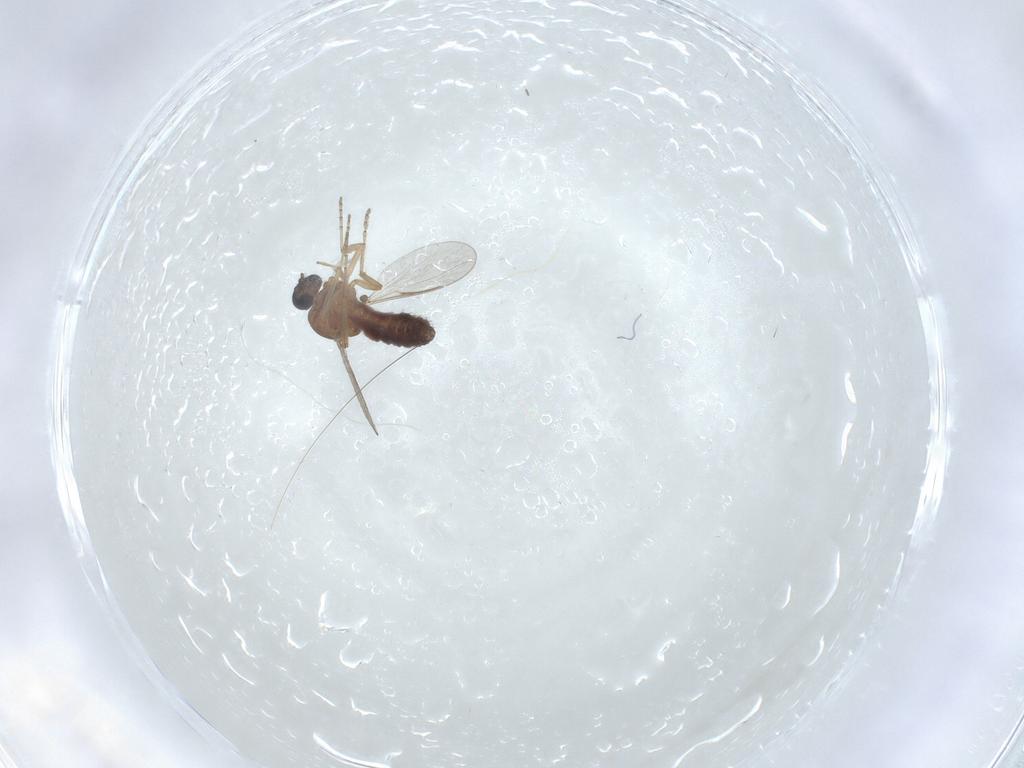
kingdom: Animalia
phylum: Arthropoda
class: Insecta
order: Diptera
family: Ceratopogonidae
